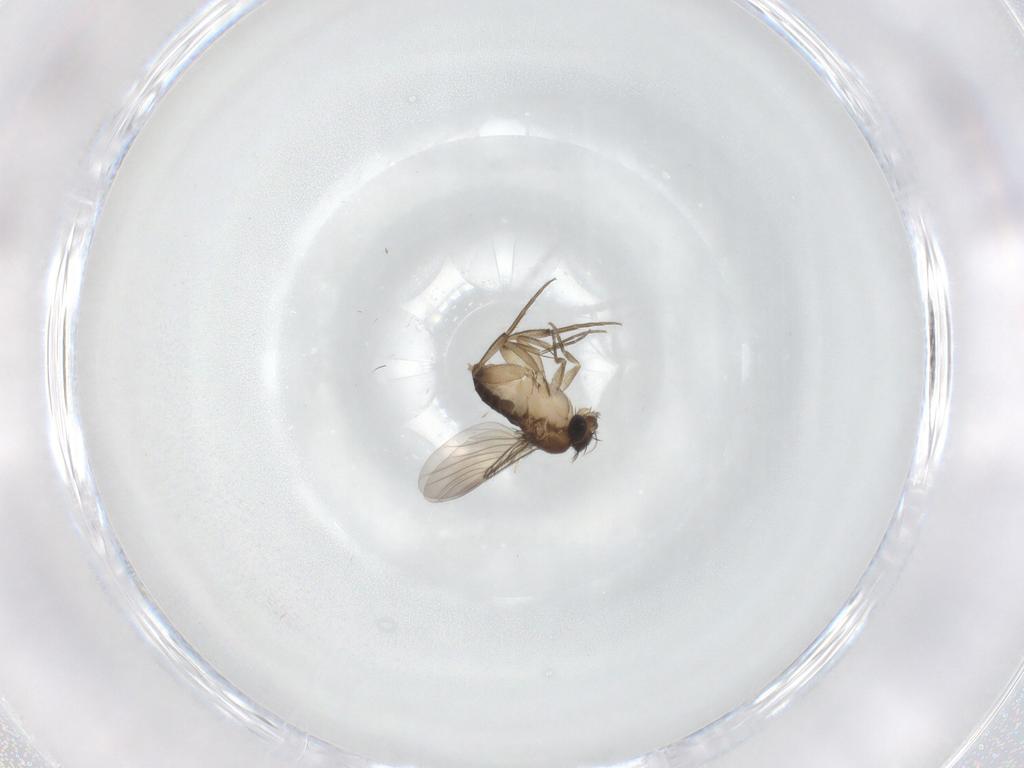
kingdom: Animalia
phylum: Arthropoda
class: Insecta
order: Diptera
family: Phoridae
